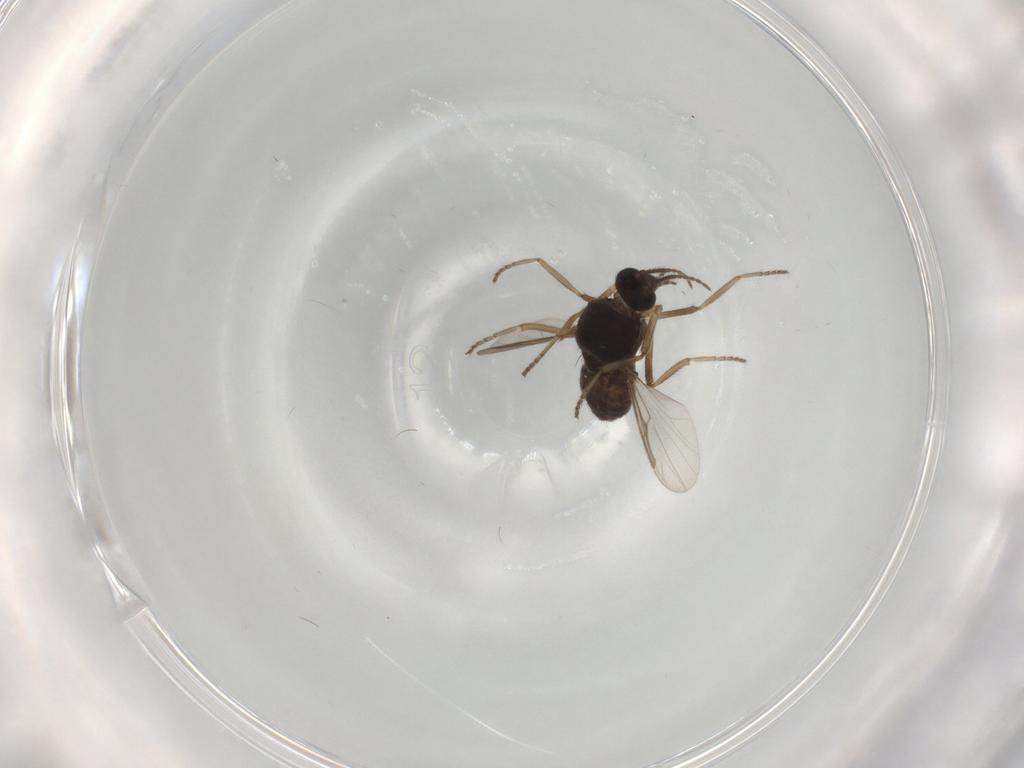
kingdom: Animalia
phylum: Arthropoda
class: Insecta
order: Diptera
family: Ceratopogonidae
